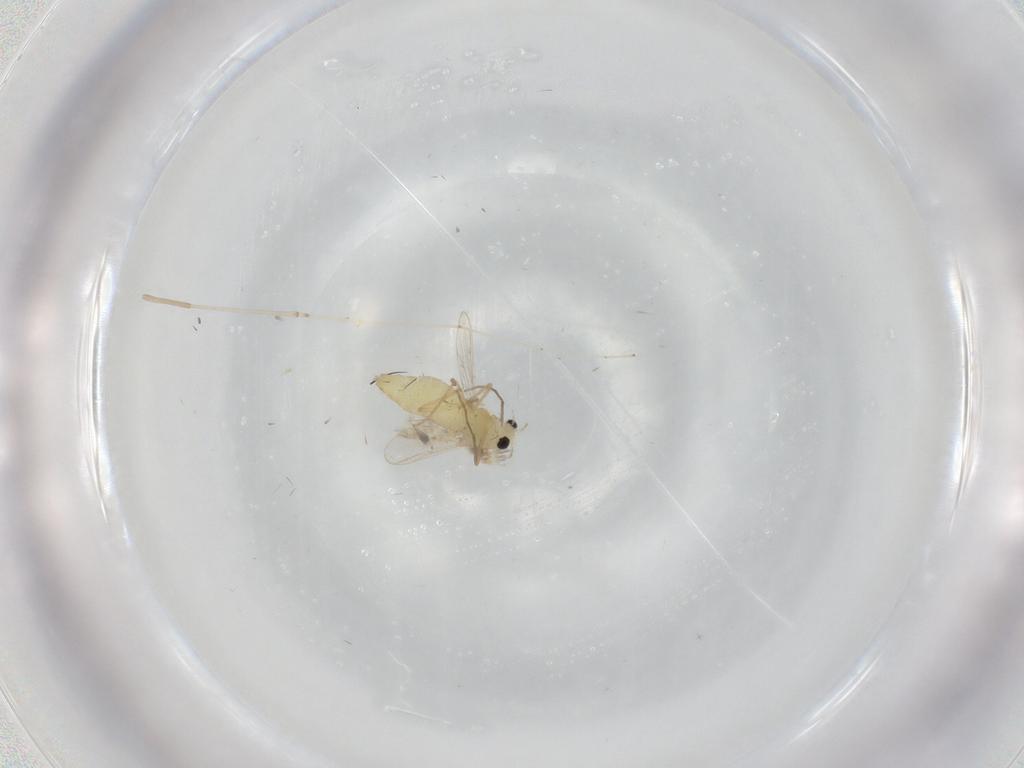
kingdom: Animalia
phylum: Arthropoda
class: Insecta
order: Diptera
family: Chironomidae
